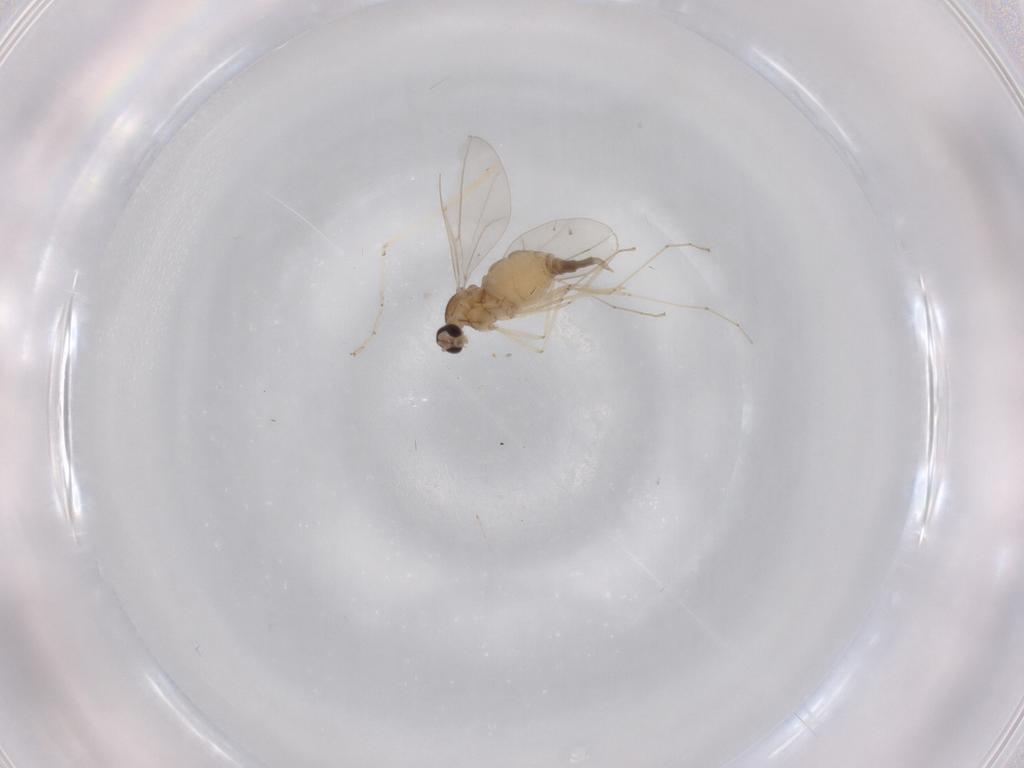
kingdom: Animalia
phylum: Arthropoda
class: Insecta
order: Diptera
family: Cecidomyiidae
